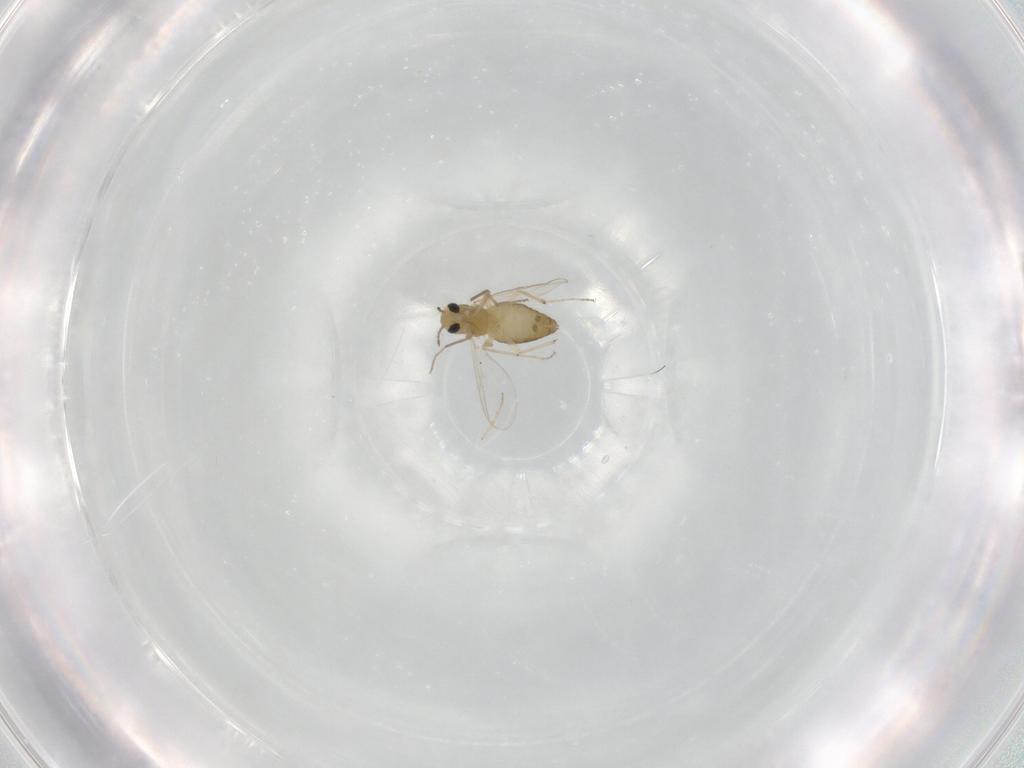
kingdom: Animalia
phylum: Arthropoda
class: Insecta
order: Diptera
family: Chironomidae
